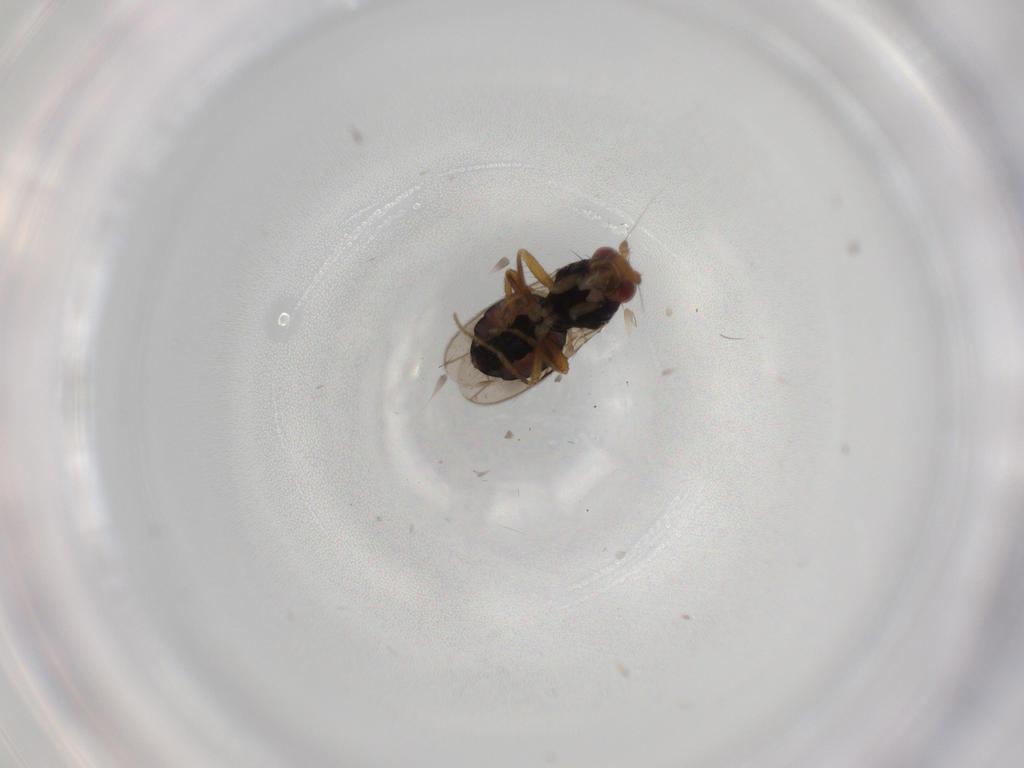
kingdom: Animalia
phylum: Arthropoda
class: Insecta
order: Diptera
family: Sphaeroceridae
